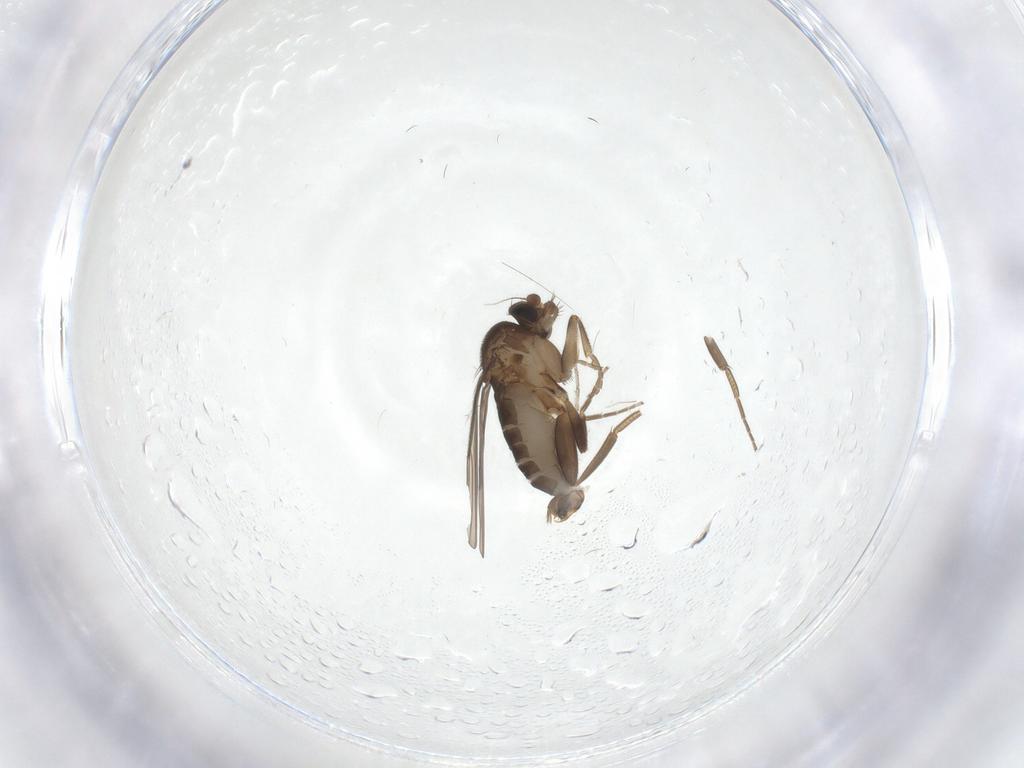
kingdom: Animalia
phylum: Arthropoda
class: Insecta
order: Diptera
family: Phoridae
